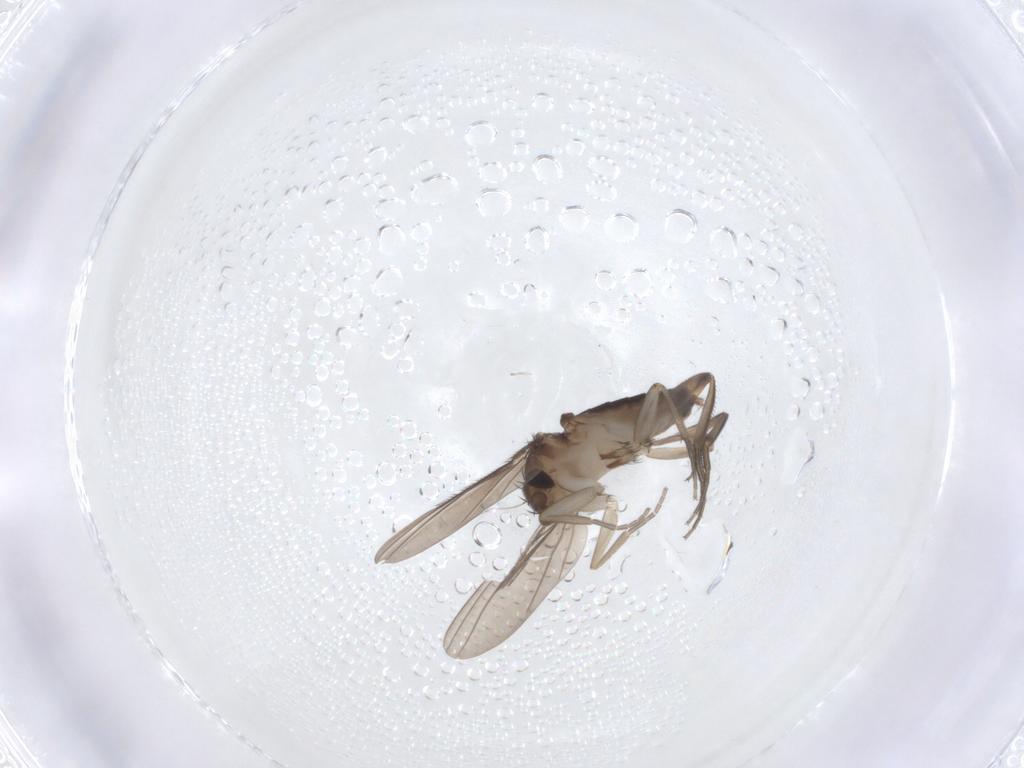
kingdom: Animalia
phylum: Arthropoda
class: Insecta
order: Diptera
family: Phoridae
